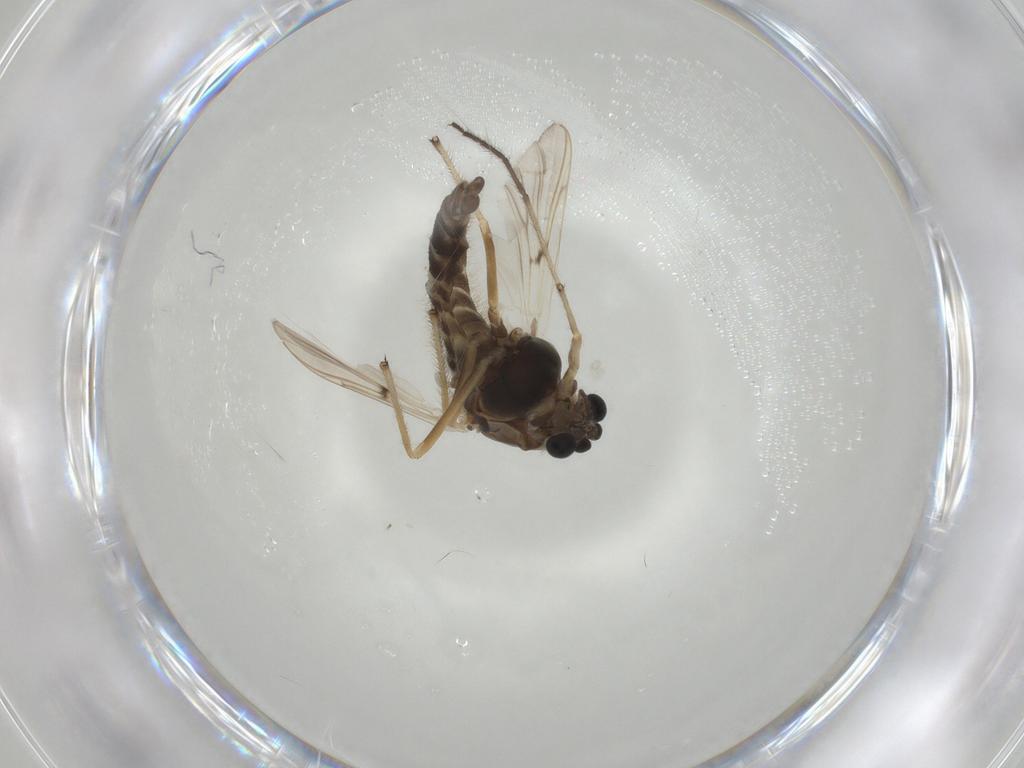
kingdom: Animalia
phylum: Arthropoda
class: Insecta
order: Diptera
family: Chironomidae
